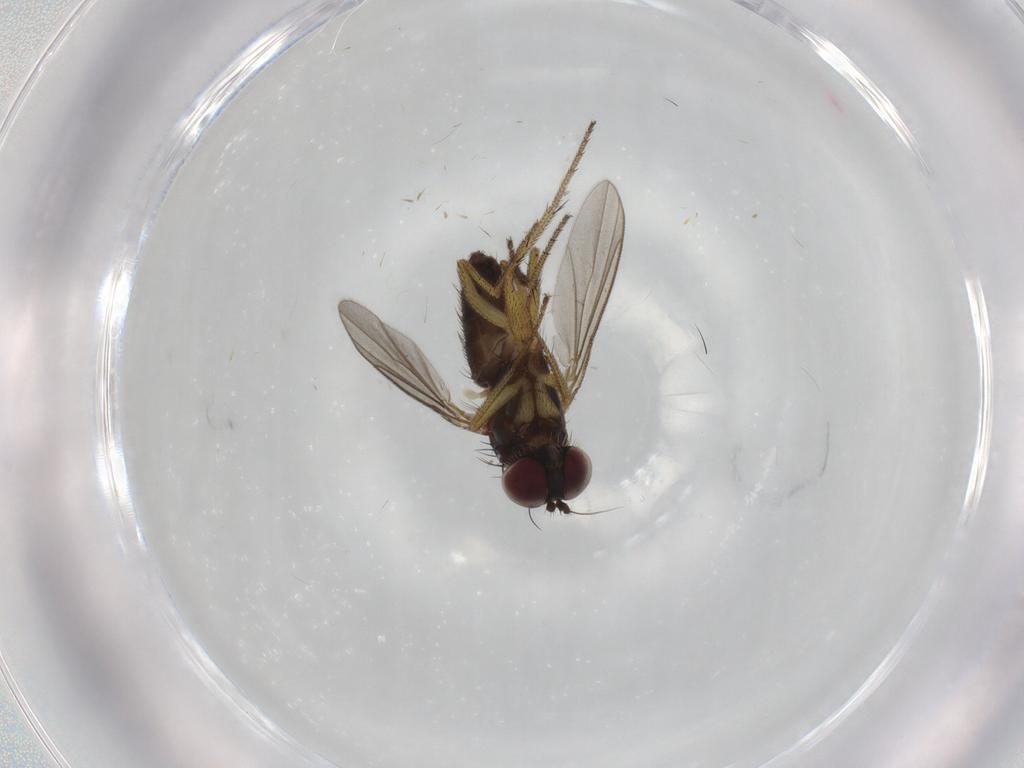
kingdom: Animalia
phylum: Arthropoda
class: Insecta
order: Diptera
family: Dolichopodidae
